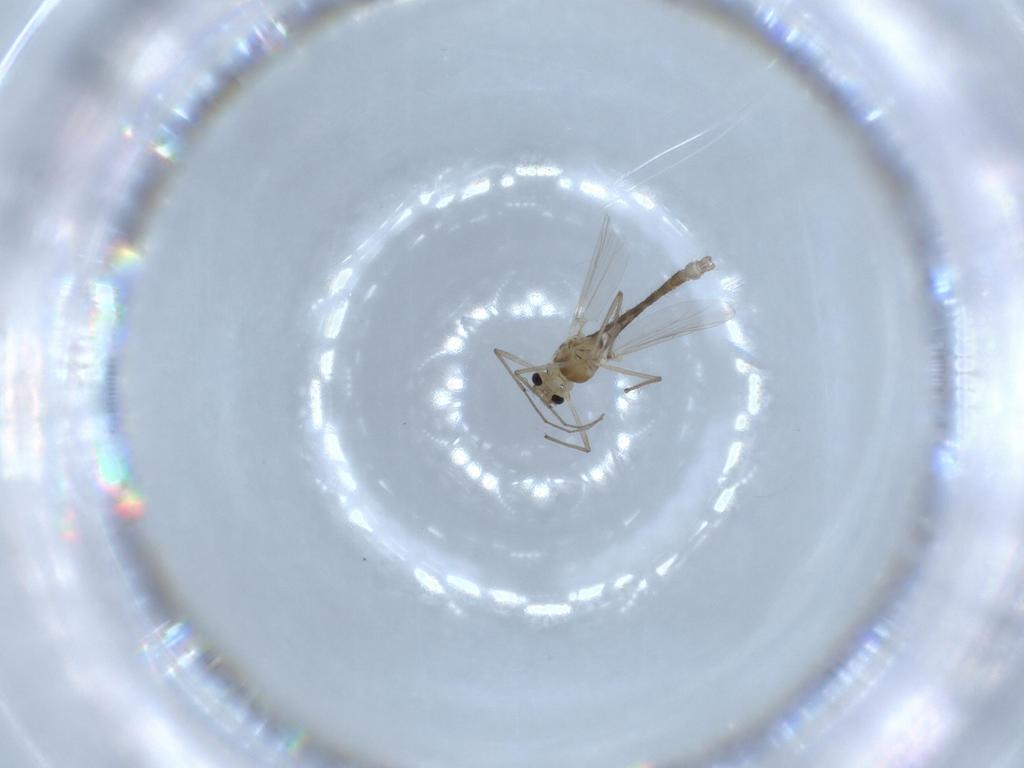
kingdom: Animalia
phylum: Arthropoda
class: Insecta
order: Diptera
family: Chironomidae
